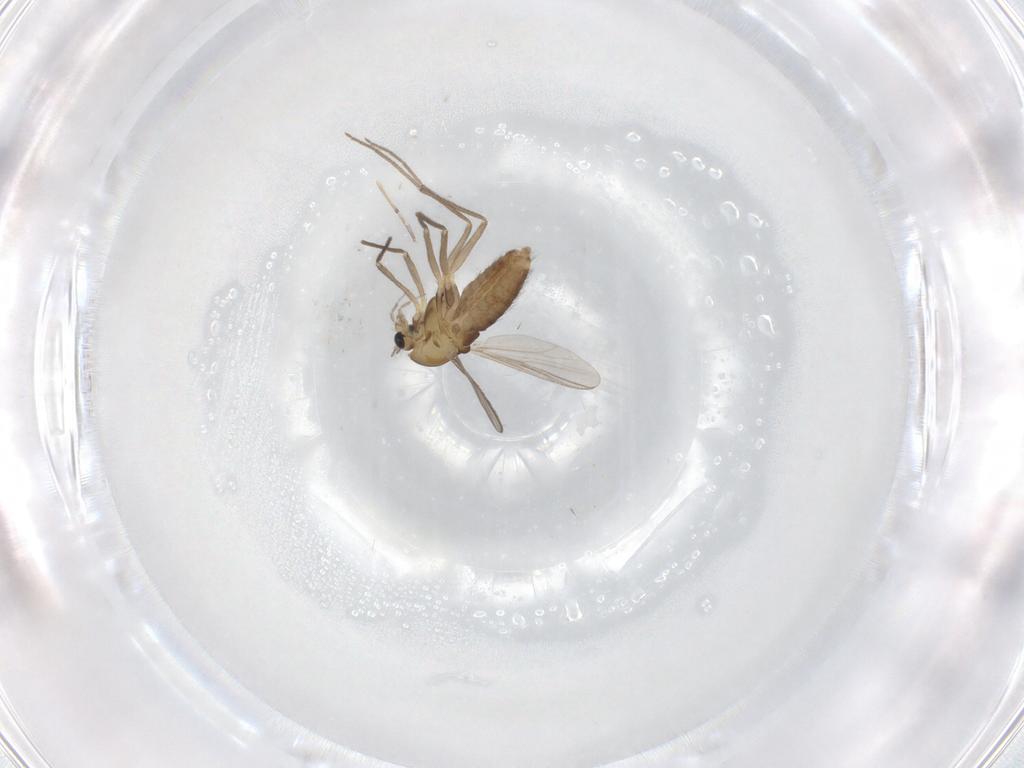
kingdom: Animalia
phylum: Arthropoda
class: Insecta
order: Diptera
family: Chironomidae
